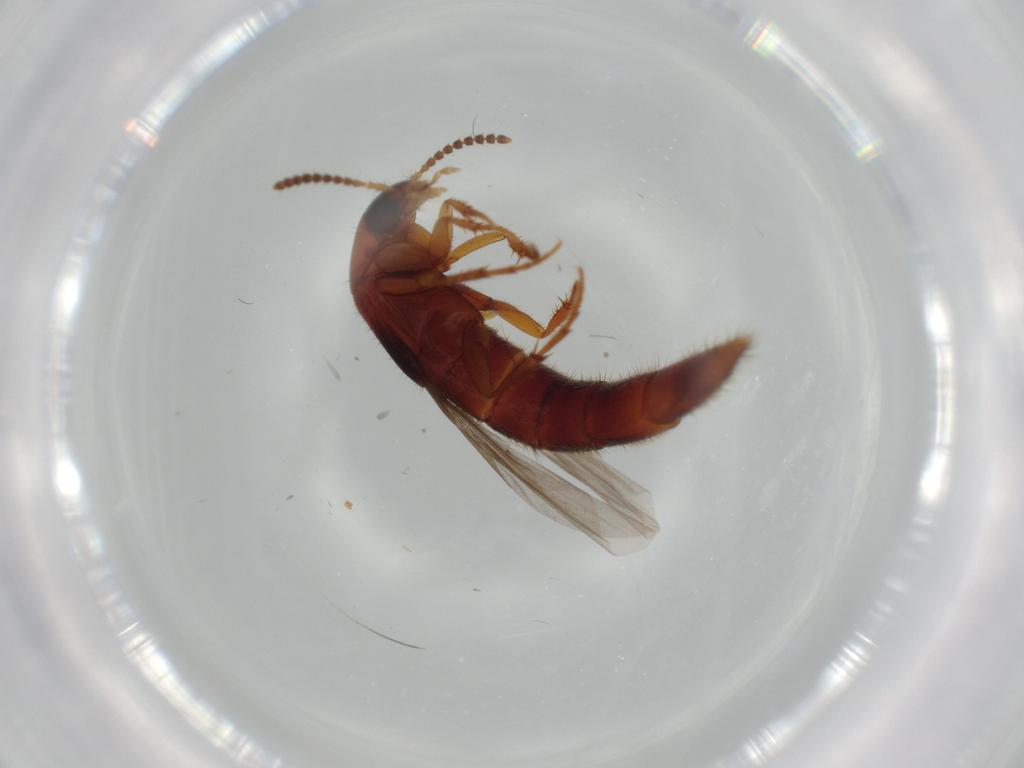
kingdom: Animalia
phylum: Arthropoda
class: Insecta
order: Coleoptera
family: Staphylinidae
